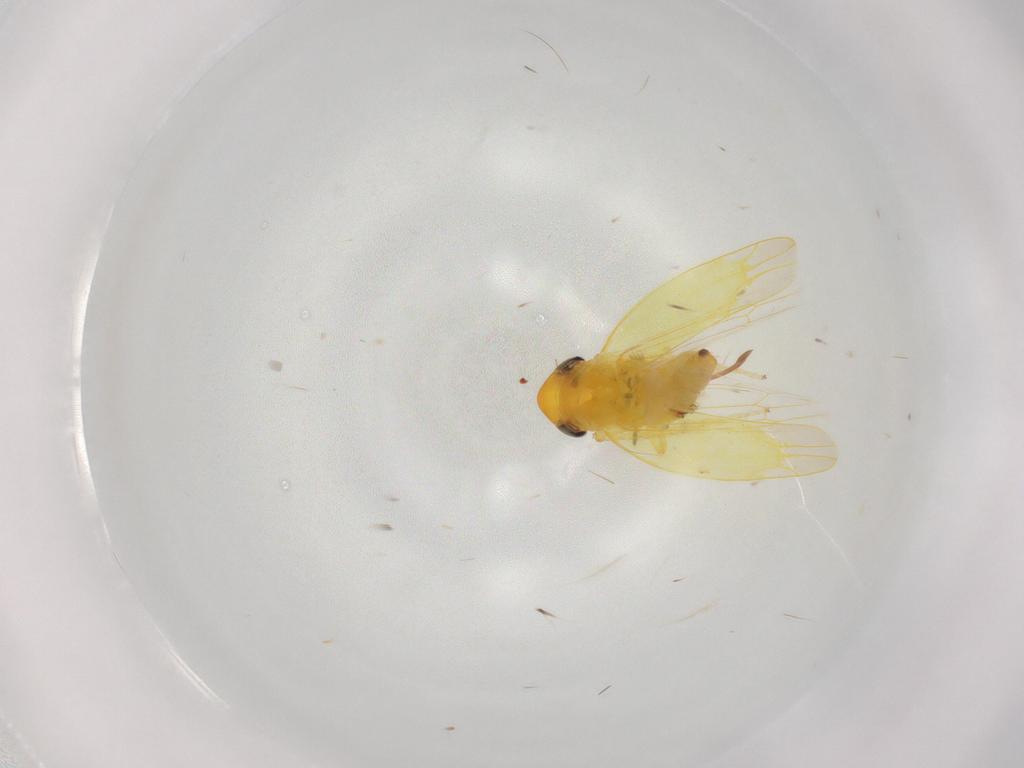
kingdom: Animalia
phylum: Arthropoda
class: Insecta
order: Hemiptera
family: Cicadellidae
